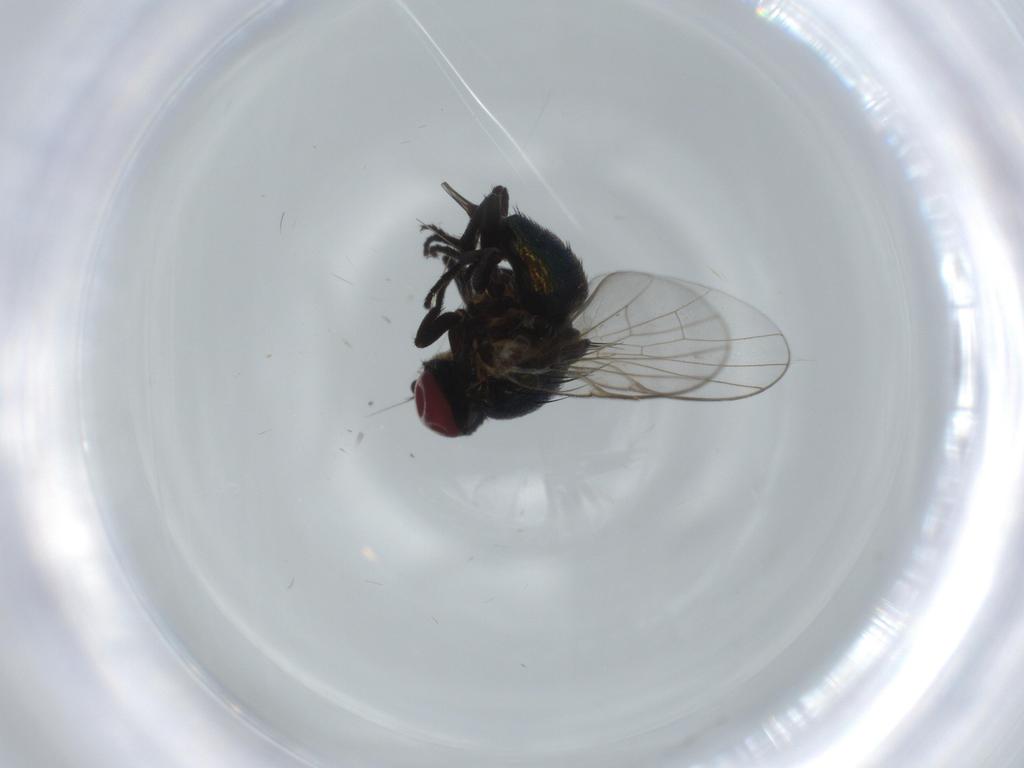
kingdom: Animalia
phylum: Arthropoda
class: Insecta
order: Diptera
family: Agromyzidae
